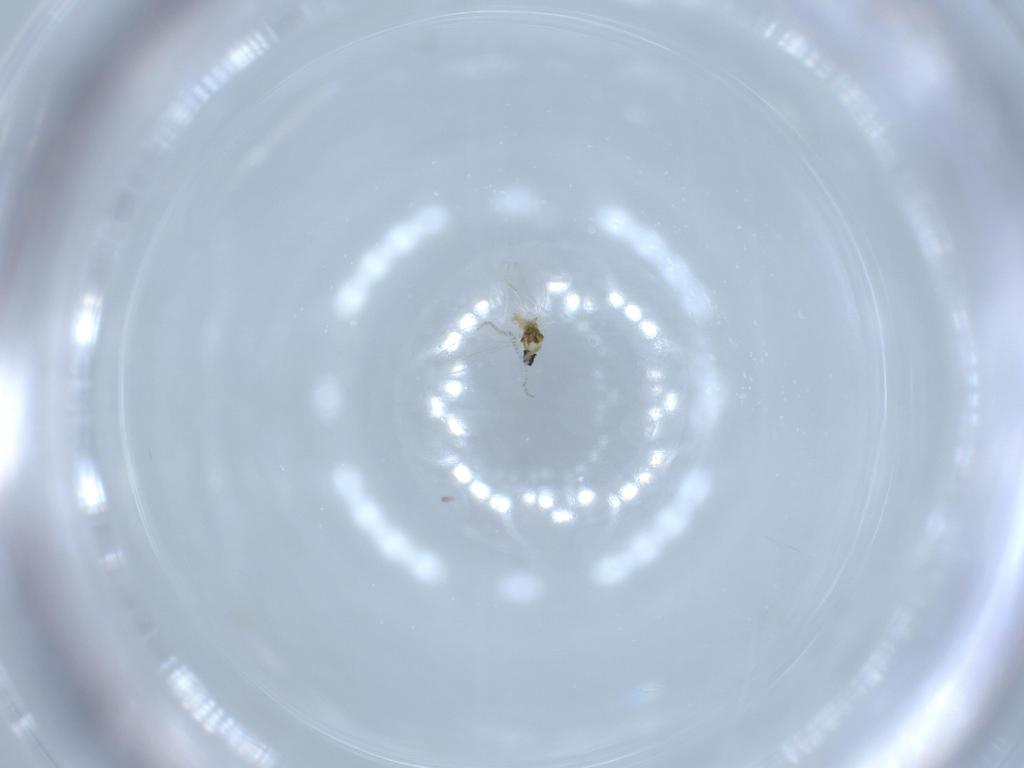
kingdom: Animalia
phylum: Arthropoda
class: Insecta
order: Diptera
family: Cecidomyiidae
